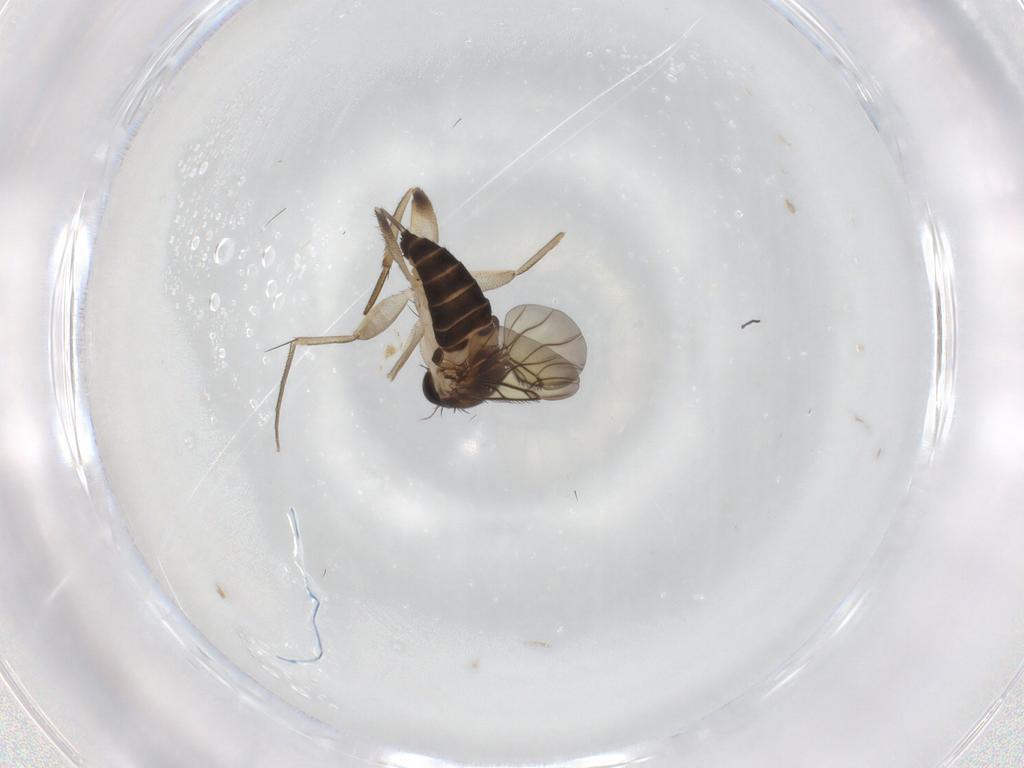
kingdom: Animalia
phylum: Arthropoda
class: Insecta
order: Diptera
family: Phoridae
